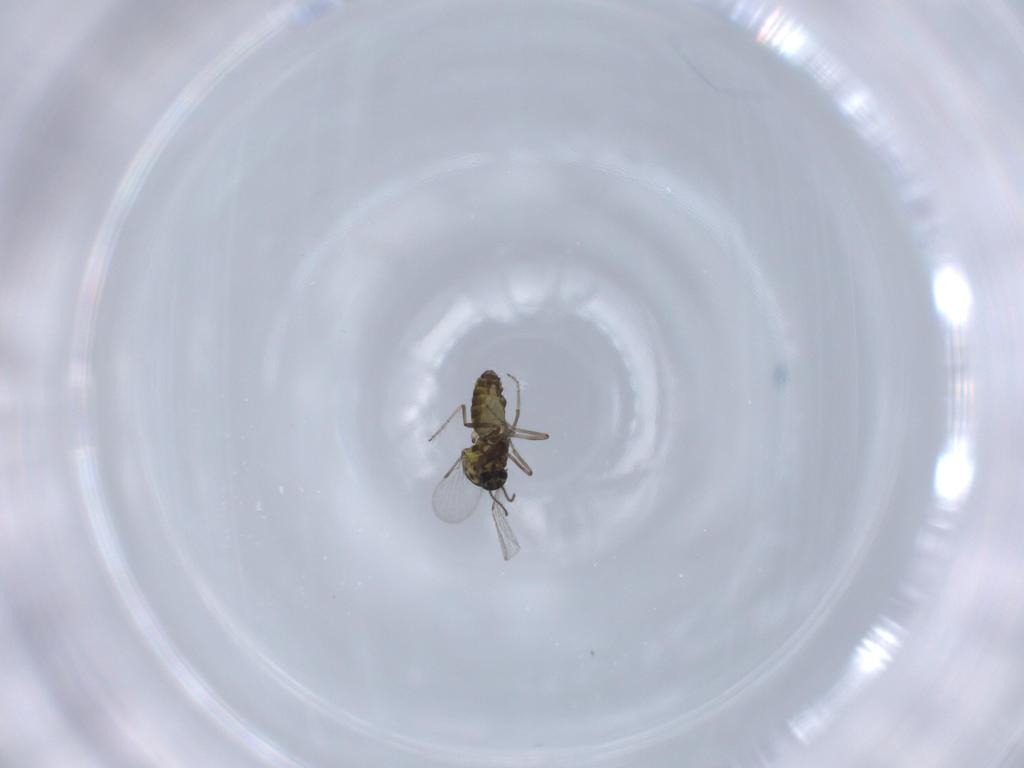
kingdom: Animalia
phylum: Arthropoda
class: Insecta
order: Diptera
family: Ceratopogonidae
